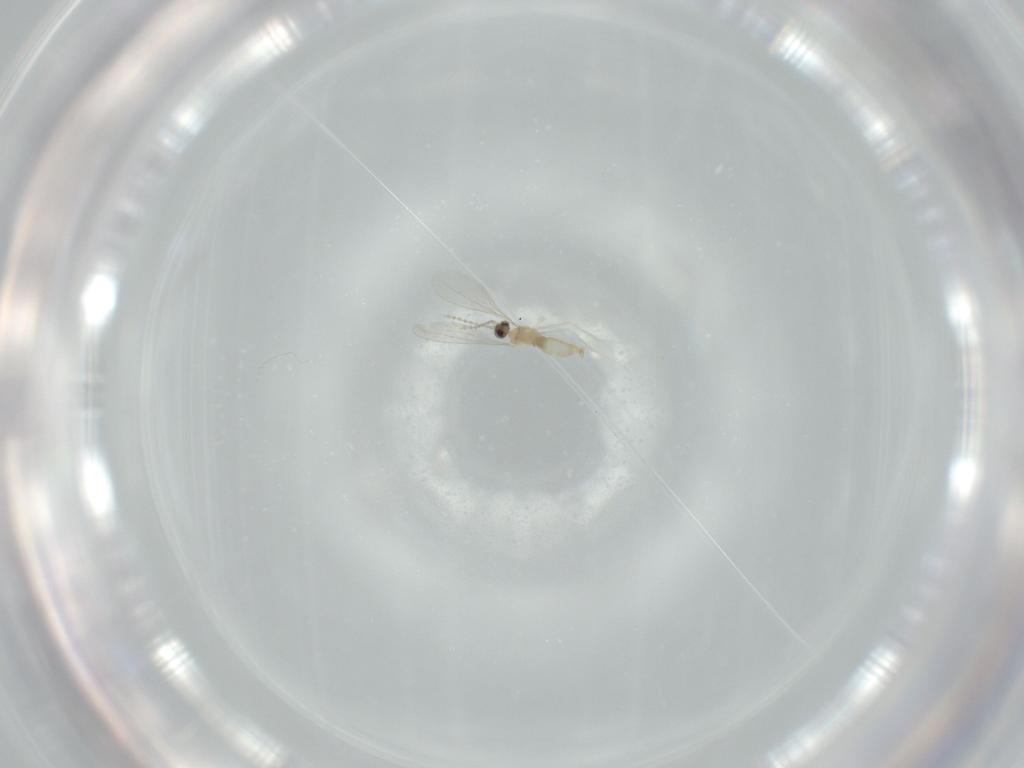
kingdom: Animalia
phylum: Arthropoda
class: Insecta
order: Diptera
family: Cecidomyiidae
